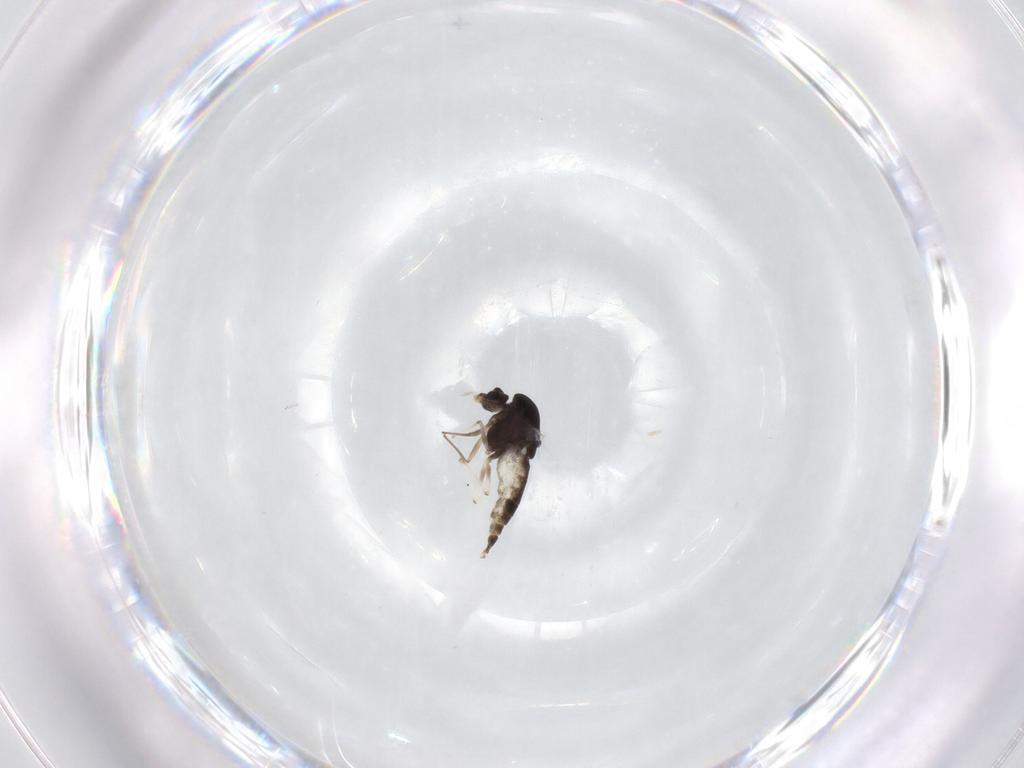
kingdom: Animalia
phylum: Arthropoda
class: Insecta
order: Diptera
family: Chironomidae
